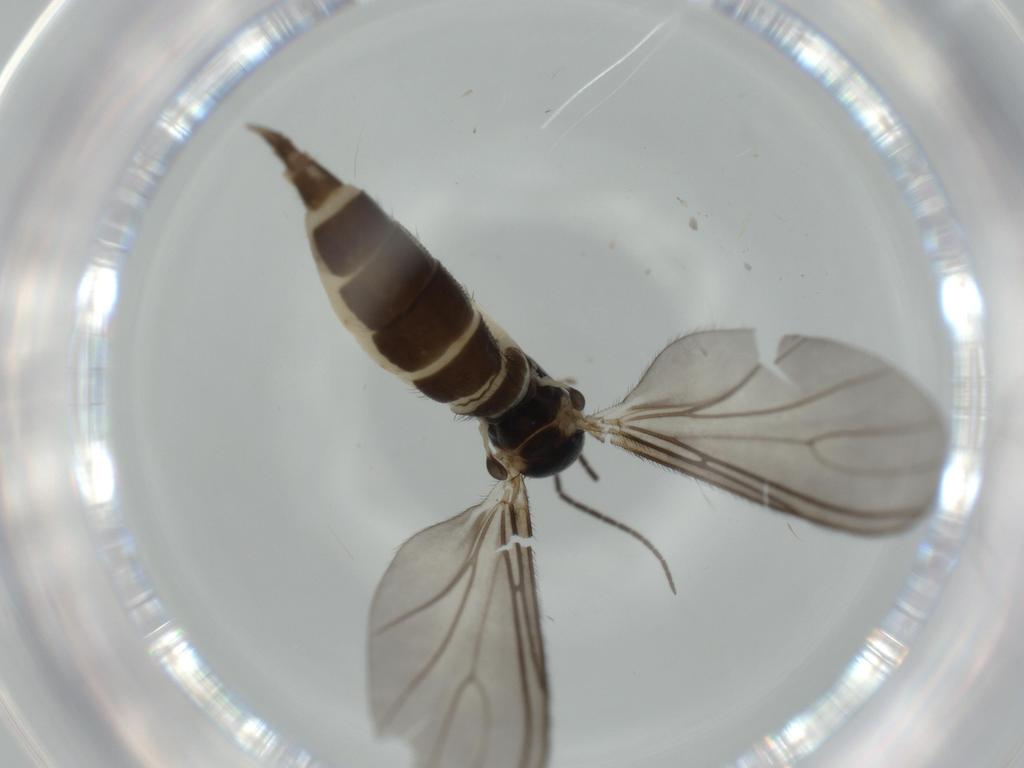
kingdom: Animalia
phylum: Arthropoda
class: Insecta
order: Diptera
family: Sciaridae
